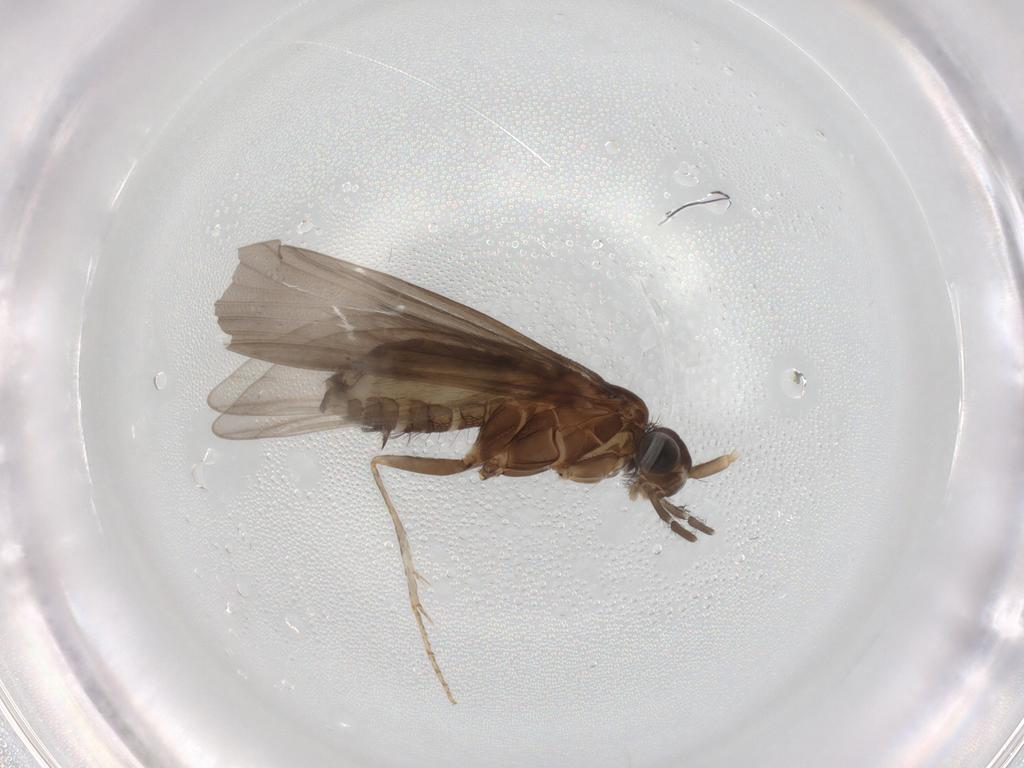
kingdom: Animalia
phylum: Arthropoda
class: Insecta
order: Trichoptera
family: Helicopsychidae
